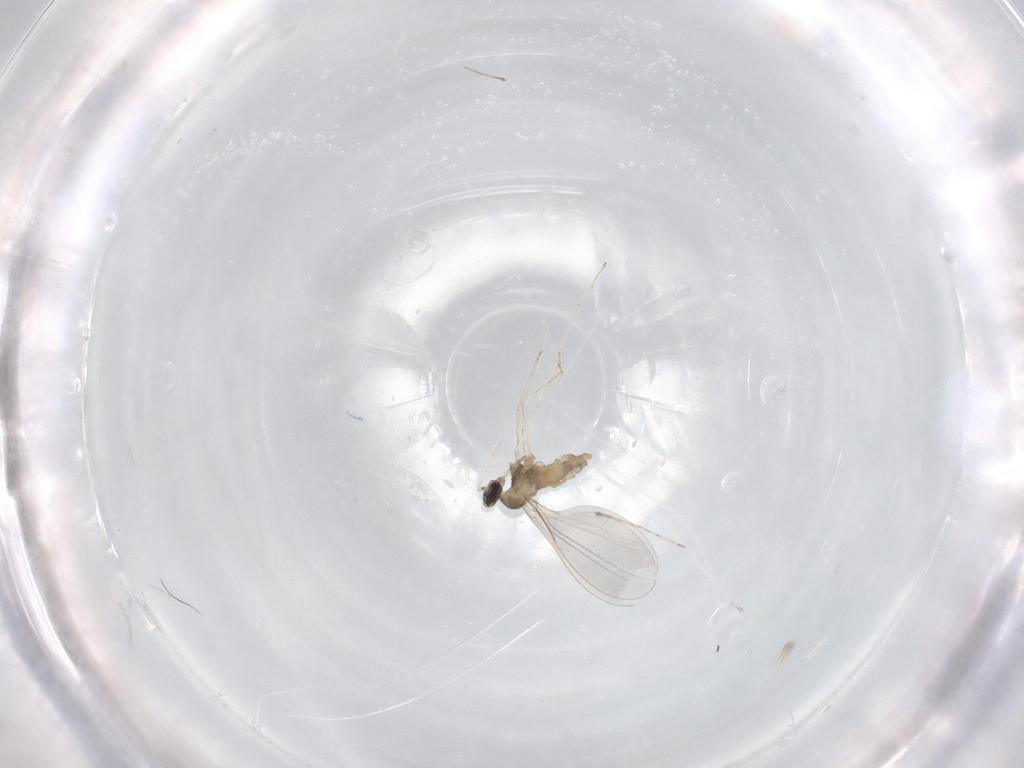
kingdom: Animalia
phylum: Arthropoda
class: Insecta
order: Diptera
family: Cecidomyiidae
